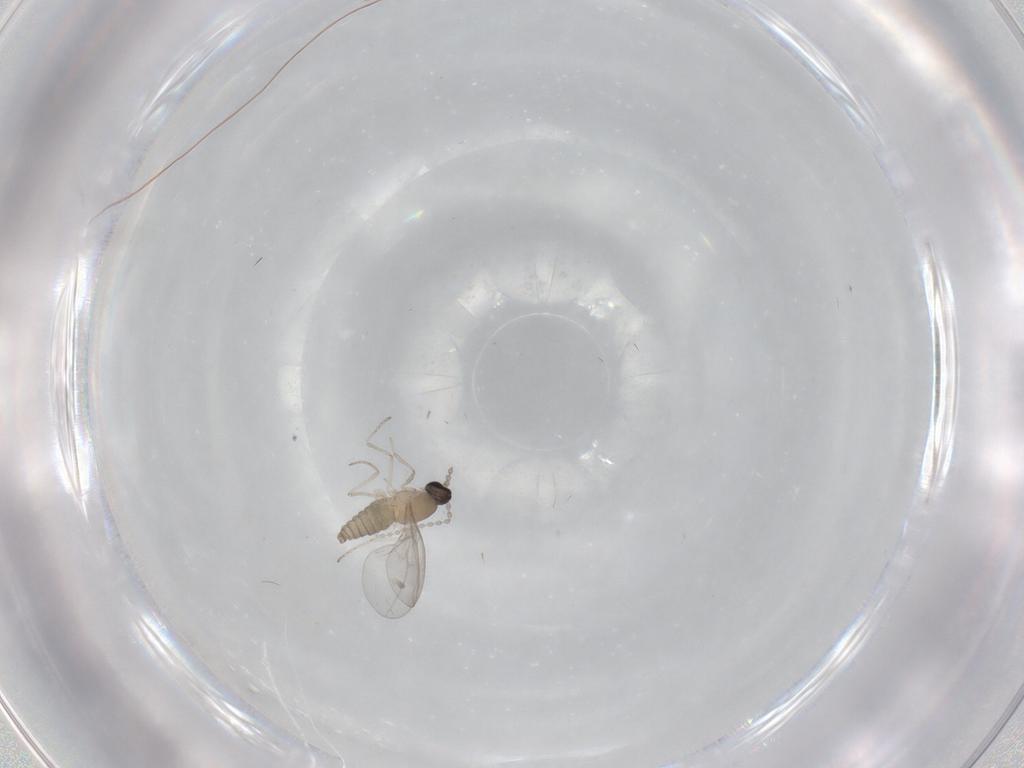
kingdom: Animalia
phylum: Arthropoda
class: Insecta
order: Diptera
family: Cecidomyiidae
